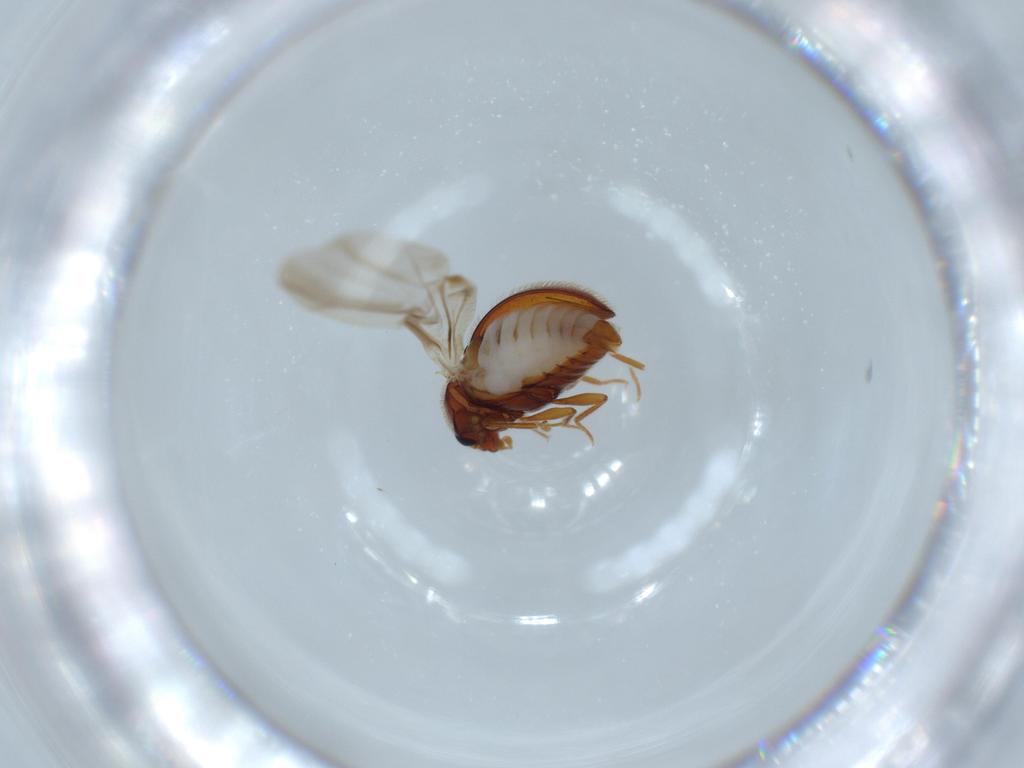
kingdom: Animalia
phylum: Arthropoda
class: Insecta
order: Coleoptera
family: Anamorphidae
